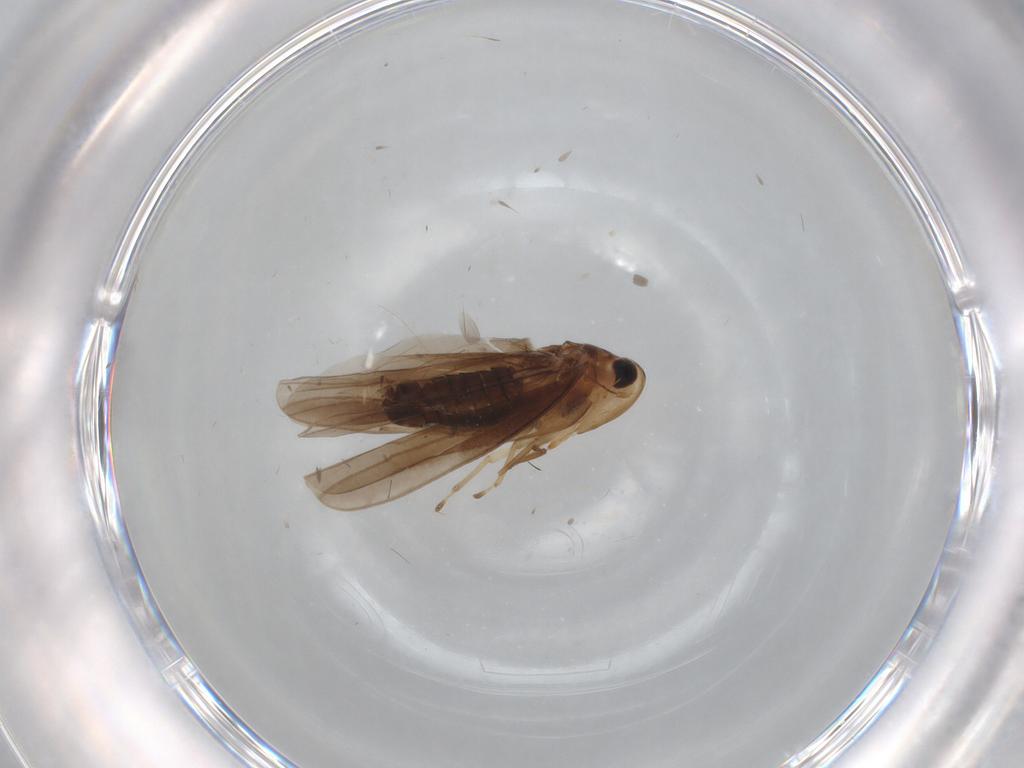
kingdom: Animalia
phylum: Arthropoda
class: Insecta
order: Hemiptera
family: Cicadellidae
